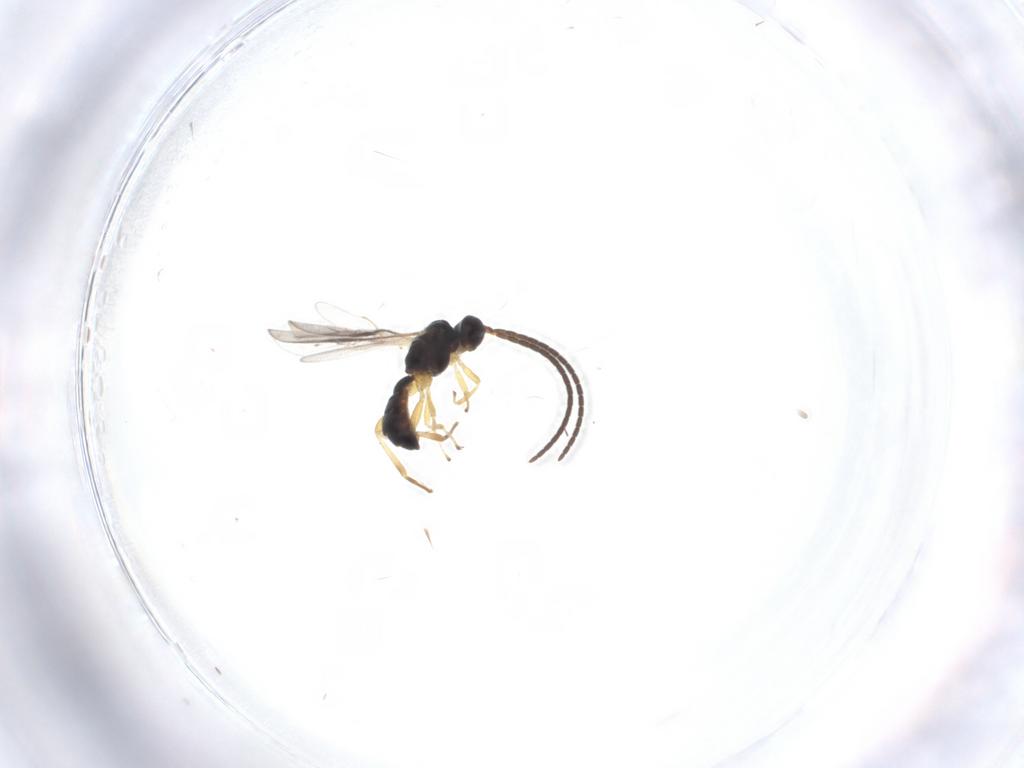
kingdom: Animalia
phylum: Arthropoda
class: Insecta
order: Hymenoptera
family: Braconidae
